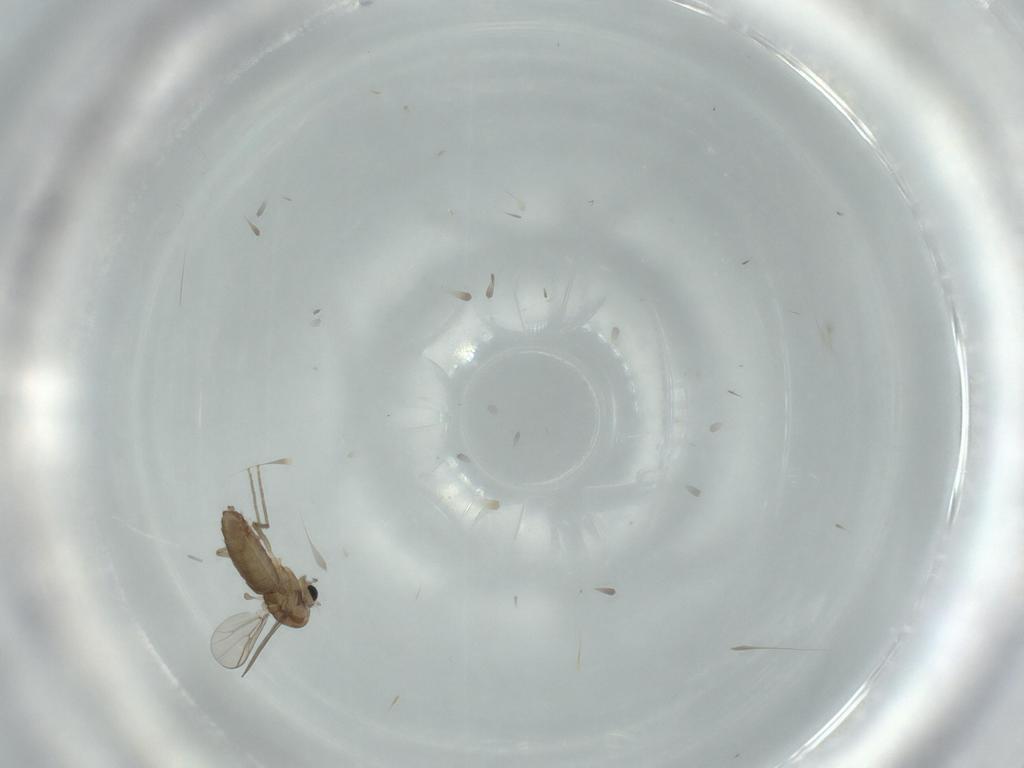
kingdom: Animalia
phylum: Arthropoda
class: Insecta
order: Diptera
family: Chironomidae
